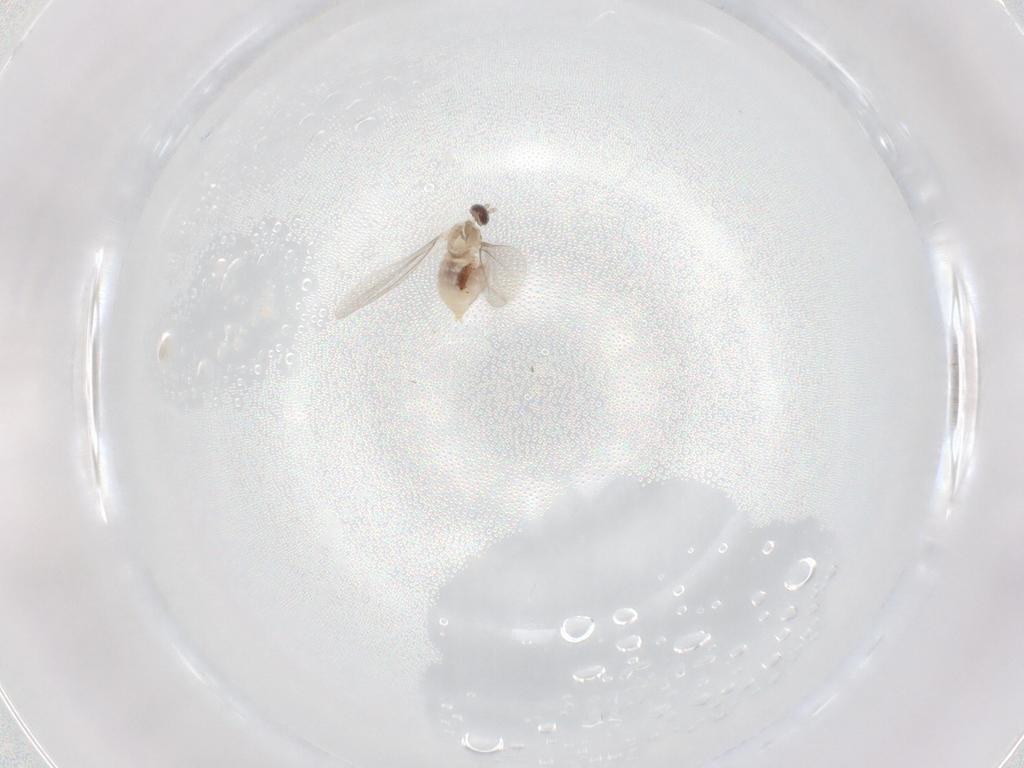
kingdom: Animalia
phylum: Arthropoda
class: Insecta
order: Diptera
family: Cecidomyiidae
